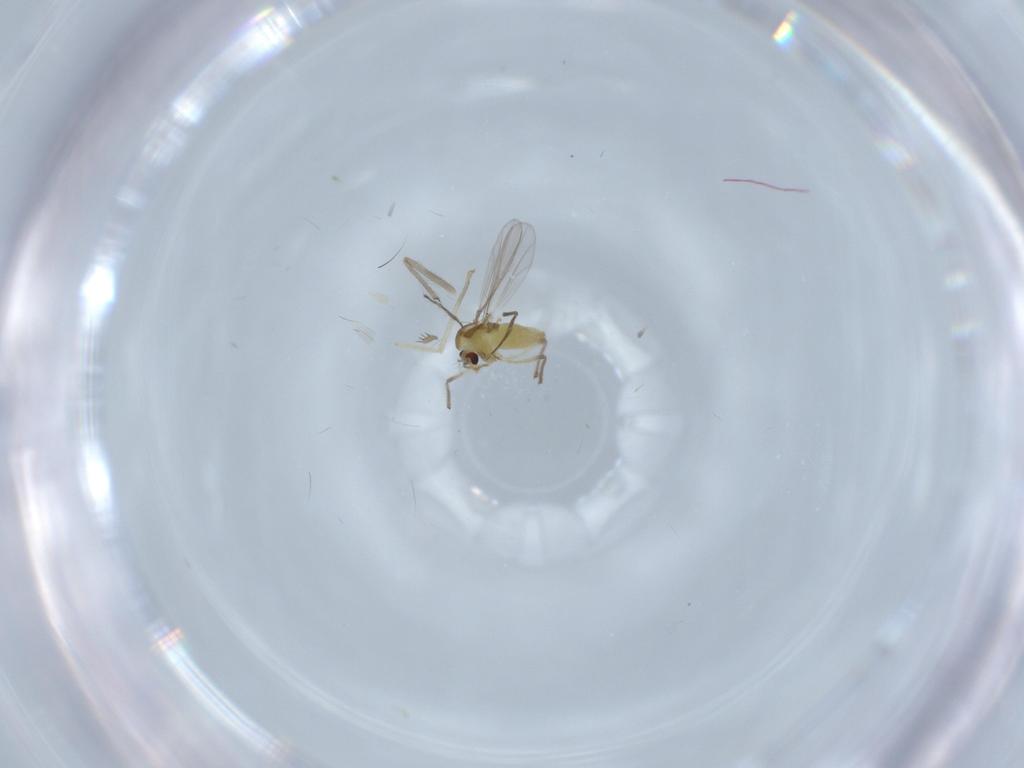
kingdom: Animalia
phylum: Arthropoda
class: Insecta
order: Diptera
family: Chironomidae
